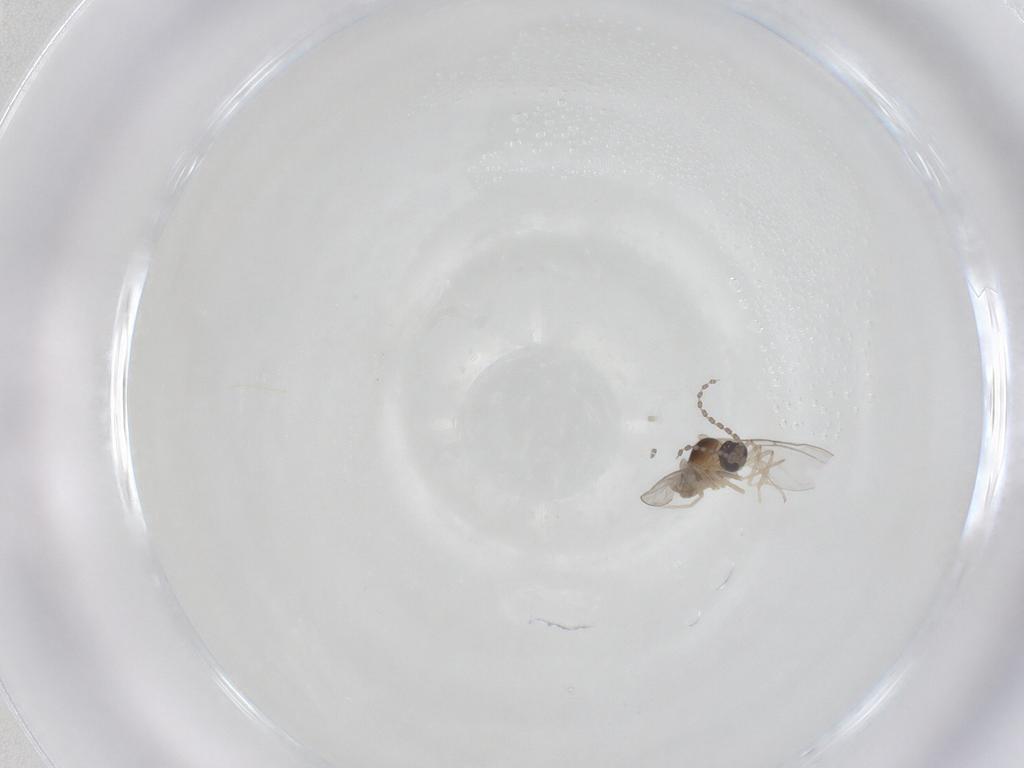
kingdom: Animalia
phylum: Arthropoda
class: Insecta
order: Diptera
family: Cecidomyiidae
